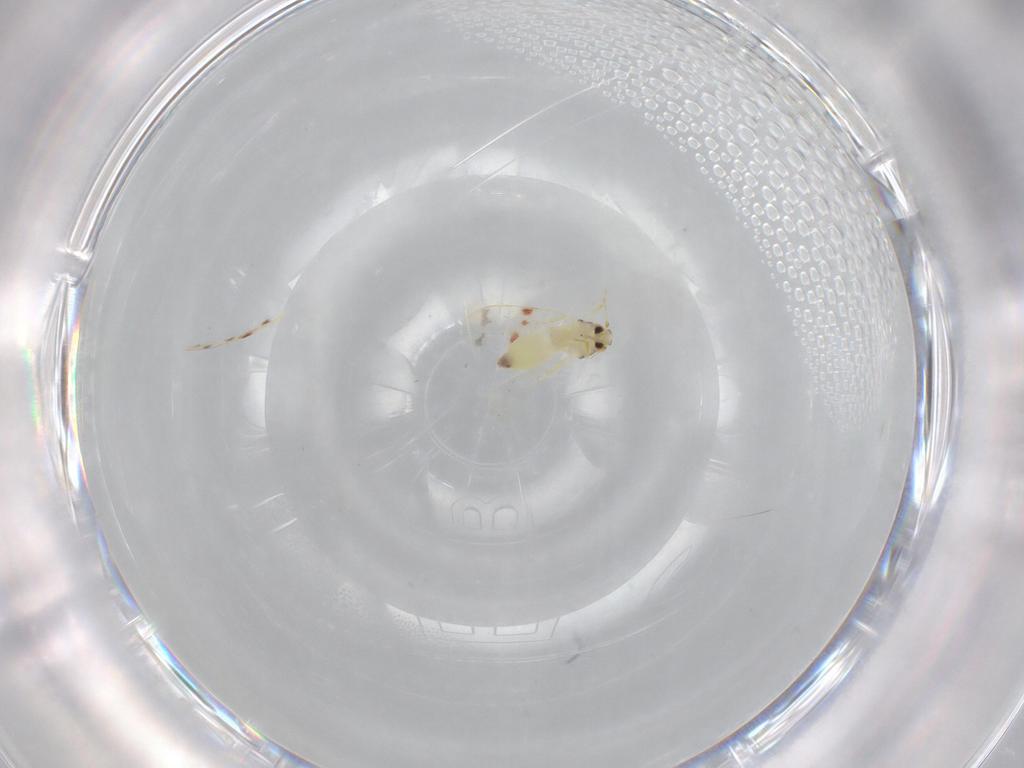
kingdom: Animalia
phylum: Arthropoda
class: Insecta
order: Hemiptera
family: Aleyrodidae
